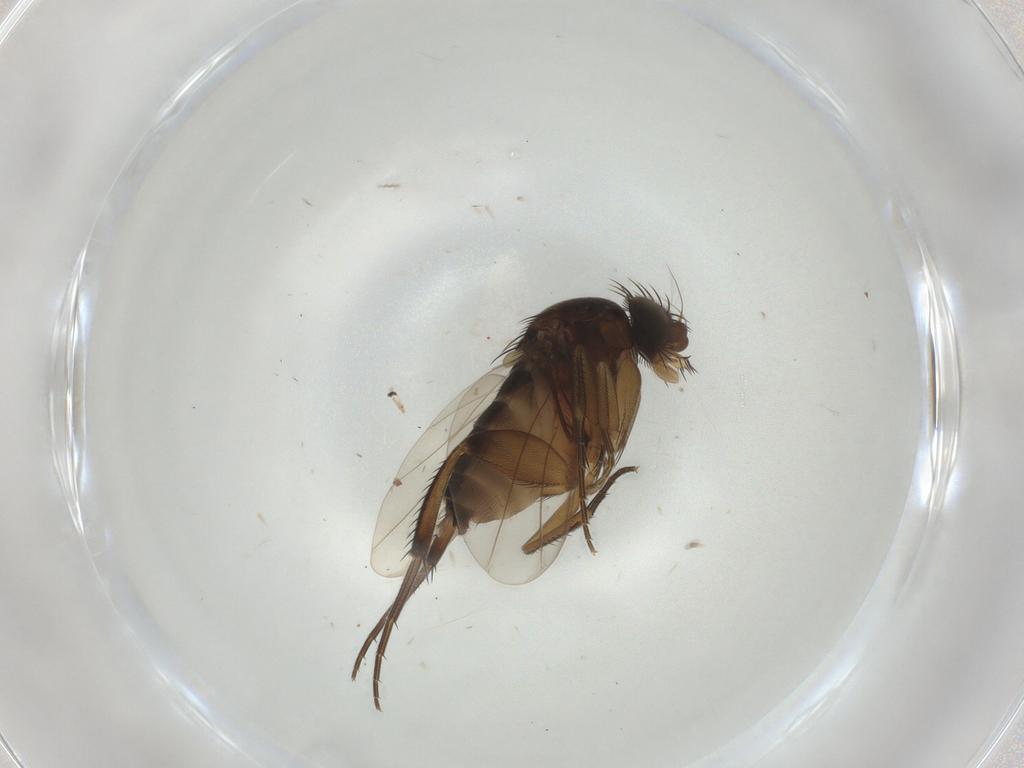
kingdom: Animalia
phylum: Arthropoda
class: Insecta
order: Diptera
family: Phoridae
